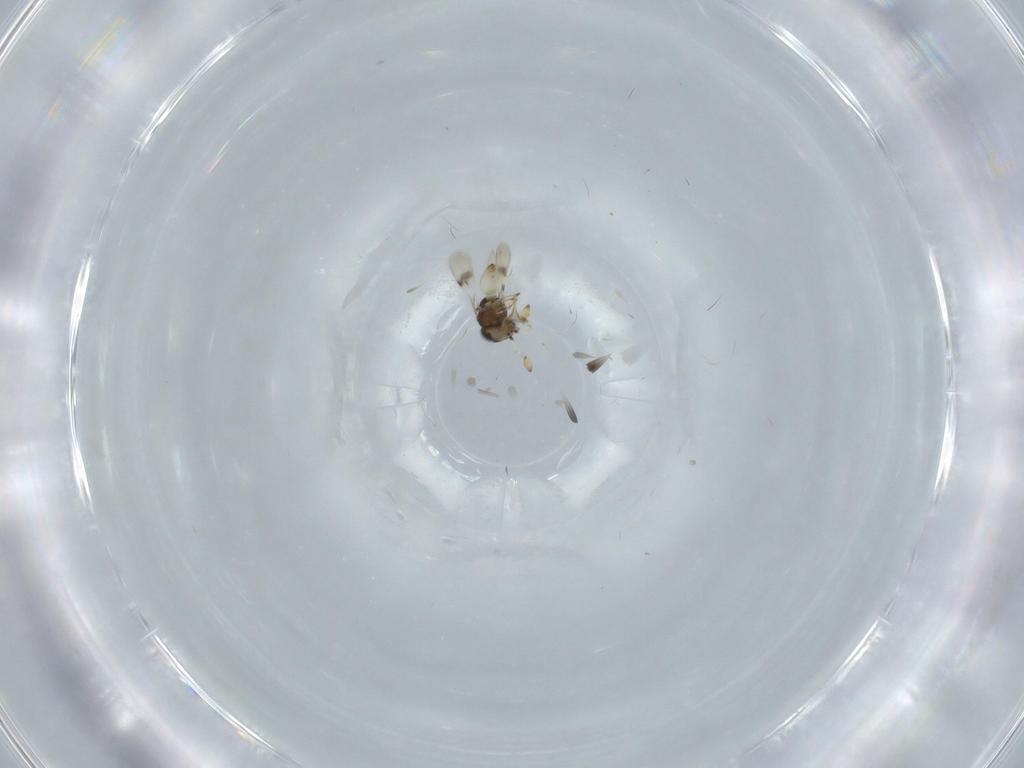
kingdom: Animalia
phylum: Arthropoda
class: Insecta
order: Hymenoptera
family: Scelionidae
